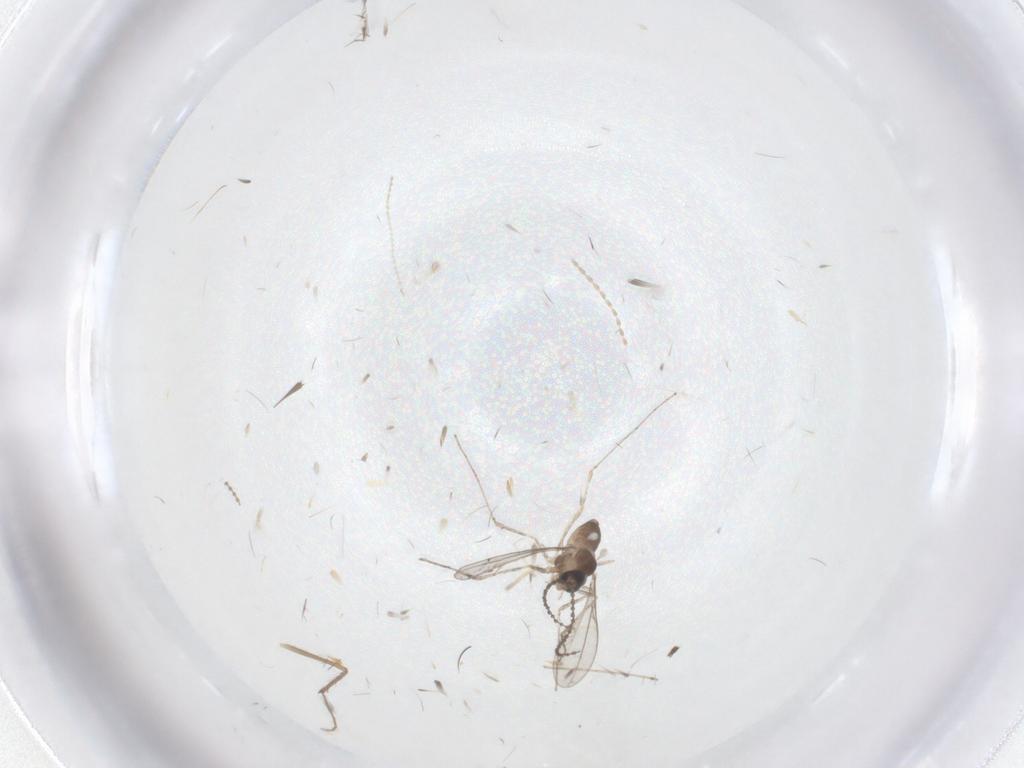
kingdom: Animalia
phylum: Arthropoda
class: Insecta
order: Diptera
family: Cecidomyiidae
